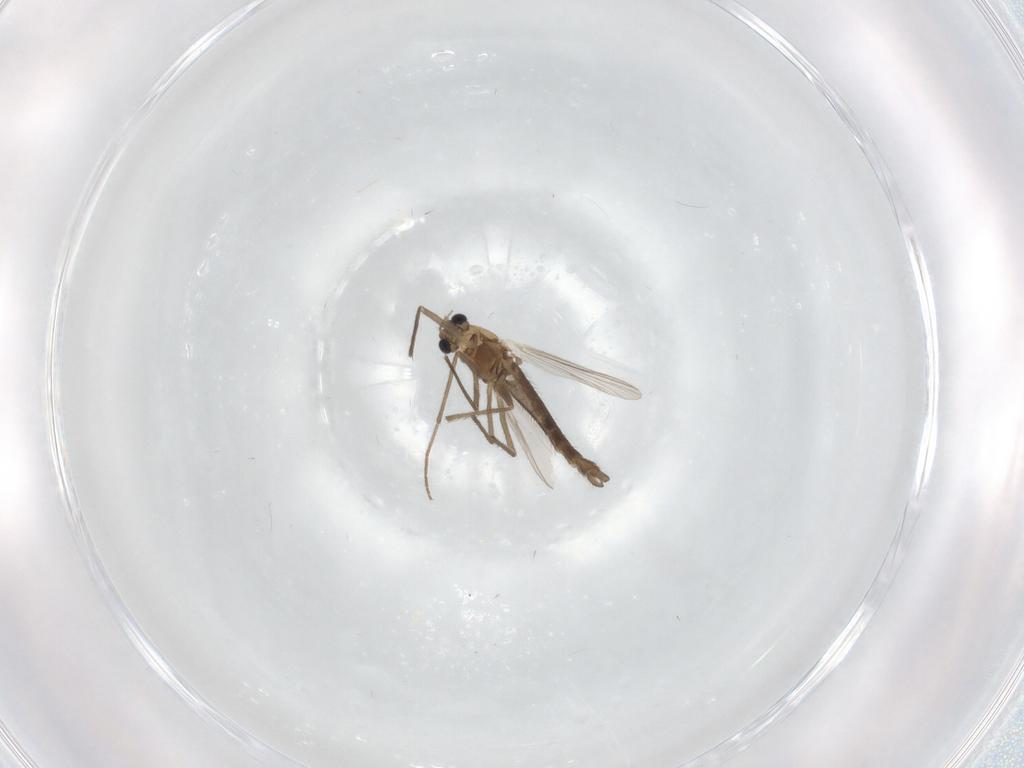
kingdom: Animalia
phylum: Arthropoda
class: Insecta
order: Diptera
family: Chironomidae
